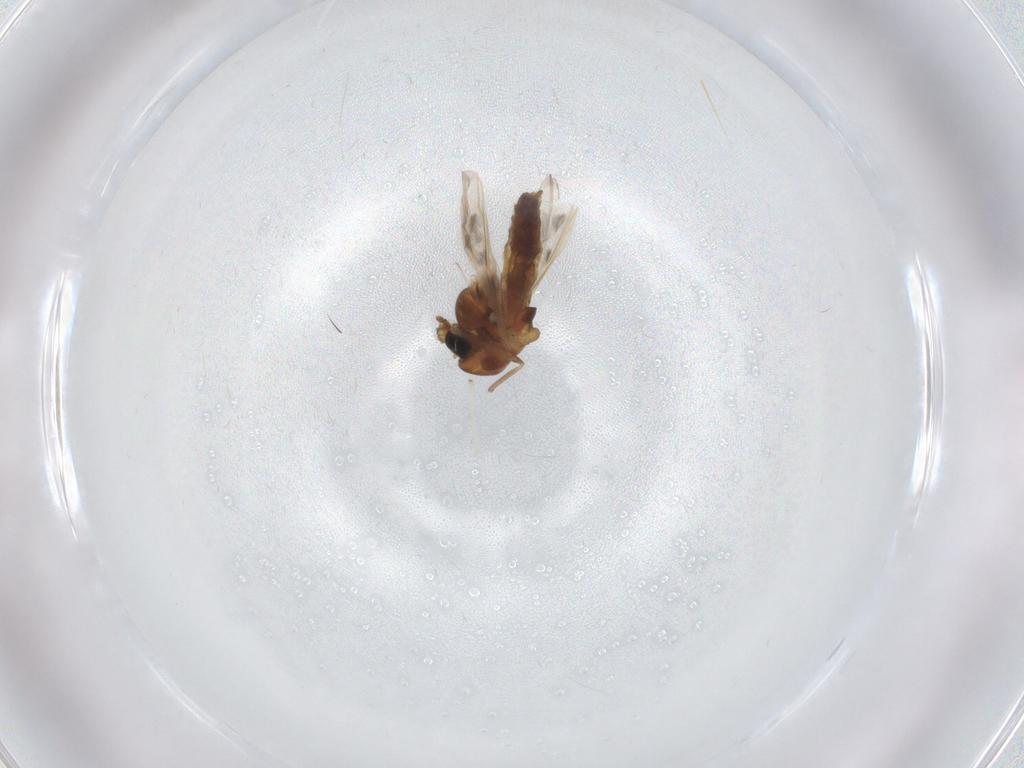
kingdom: Animalia
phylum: Arthropoda
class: Insecta
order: Diptera
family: Chironomidae
